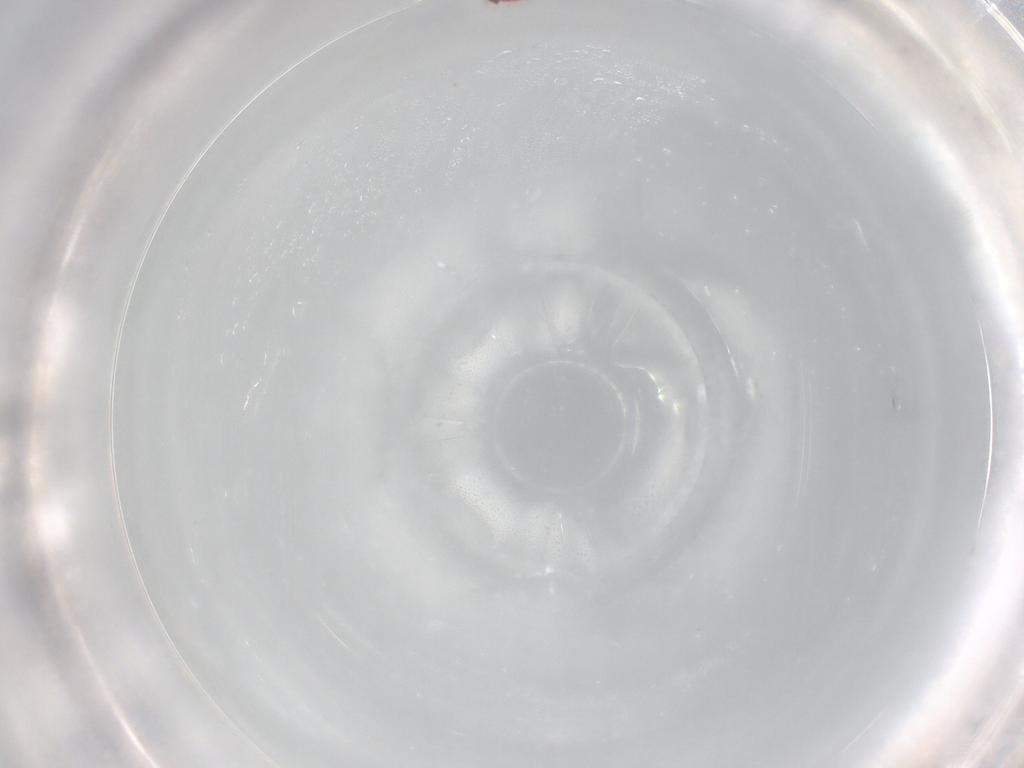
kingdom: Animalia
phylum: Arthropoda
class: Insecta
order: Hymenoptera
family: Trichogrammatidae
